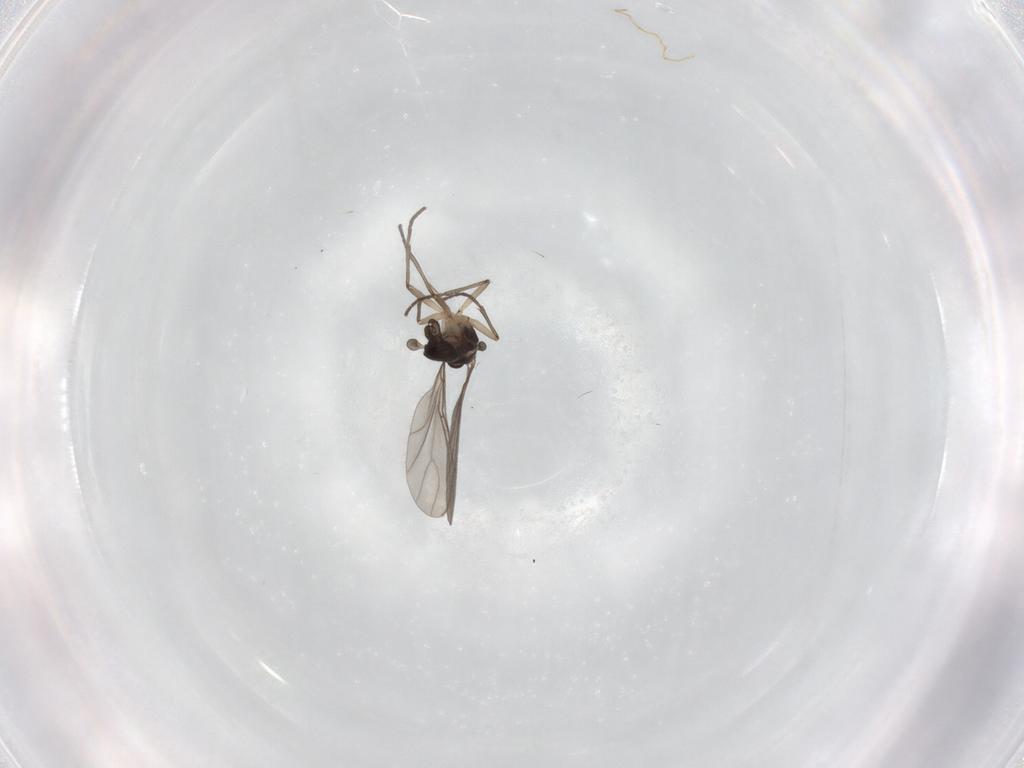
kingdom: Animalia
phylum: Arthropoda
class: Insecta
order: Diptera
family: Sciaridae
